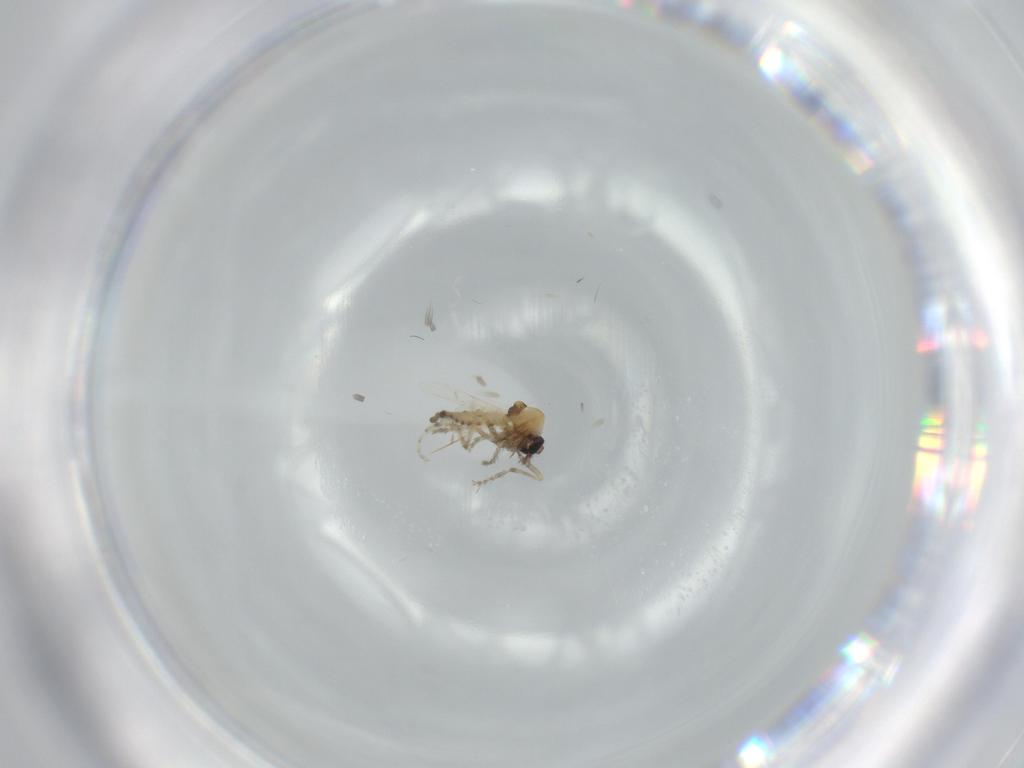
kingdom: Animalia
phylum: Arthropoda
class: Insecta
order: Diptera
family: Ceratopogonidae
